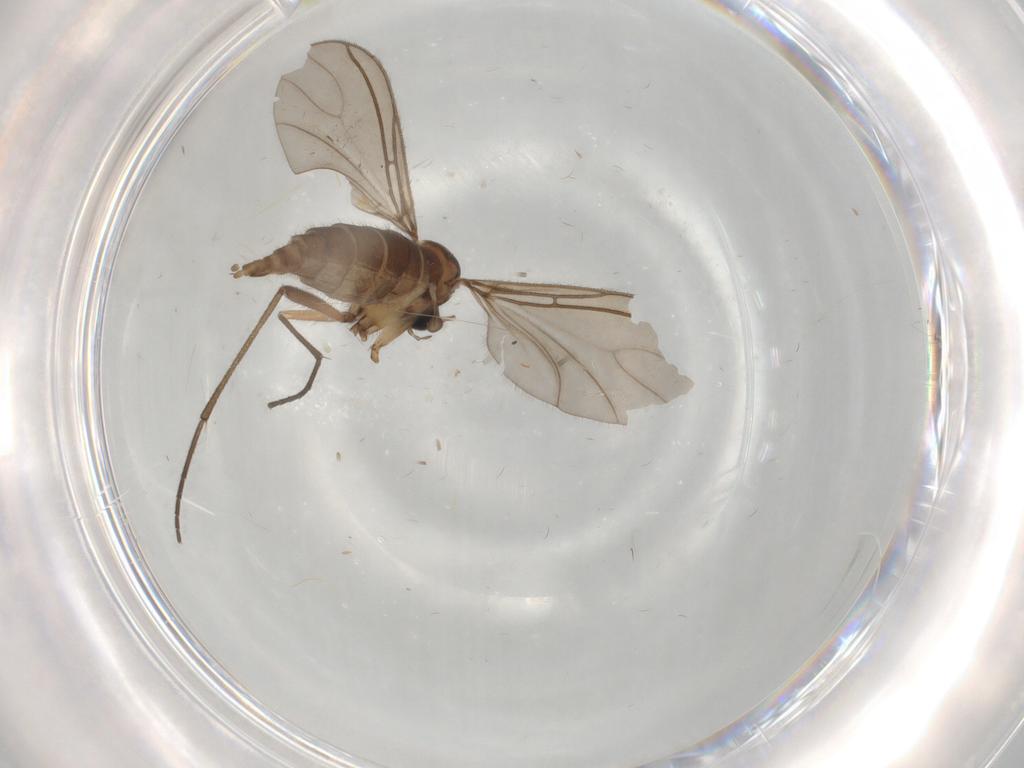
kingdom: Animalia
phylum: Arthropoda
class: Insecta
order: Diptera
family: Sciaridae
